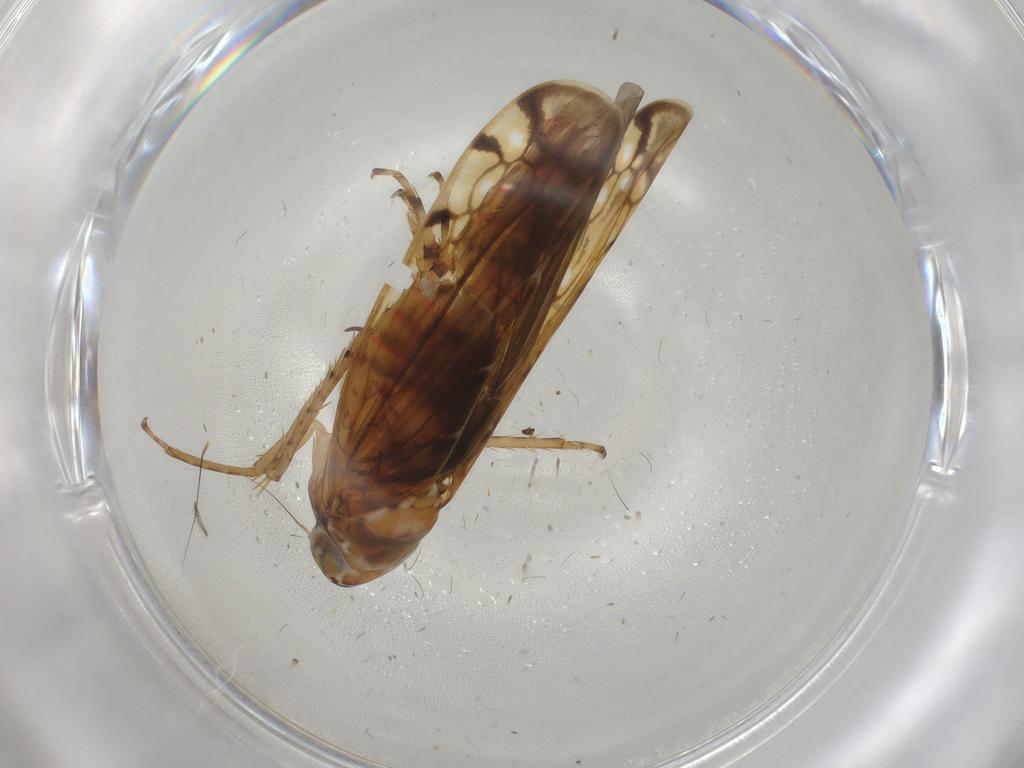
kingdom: Animalia
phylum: Arthropoda
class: Insecta
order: Hemiptera
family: Cicadellidae
